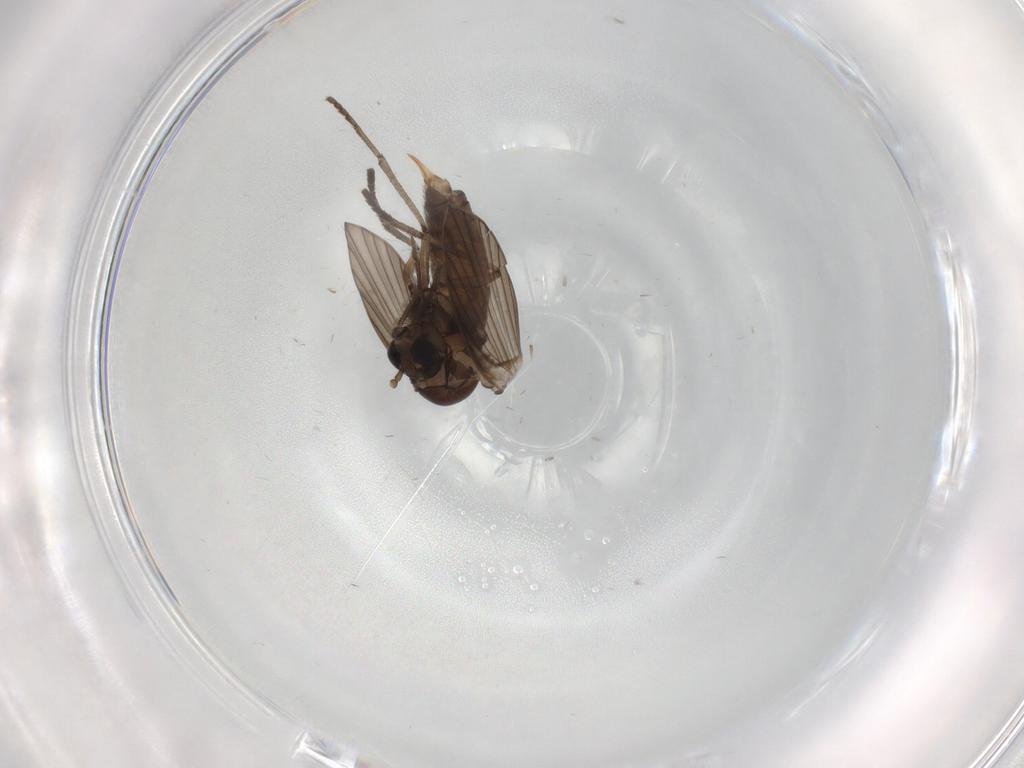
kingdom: Animalia
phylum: Arthropoda
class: Insecta
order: Diptera
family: Psychodidae
